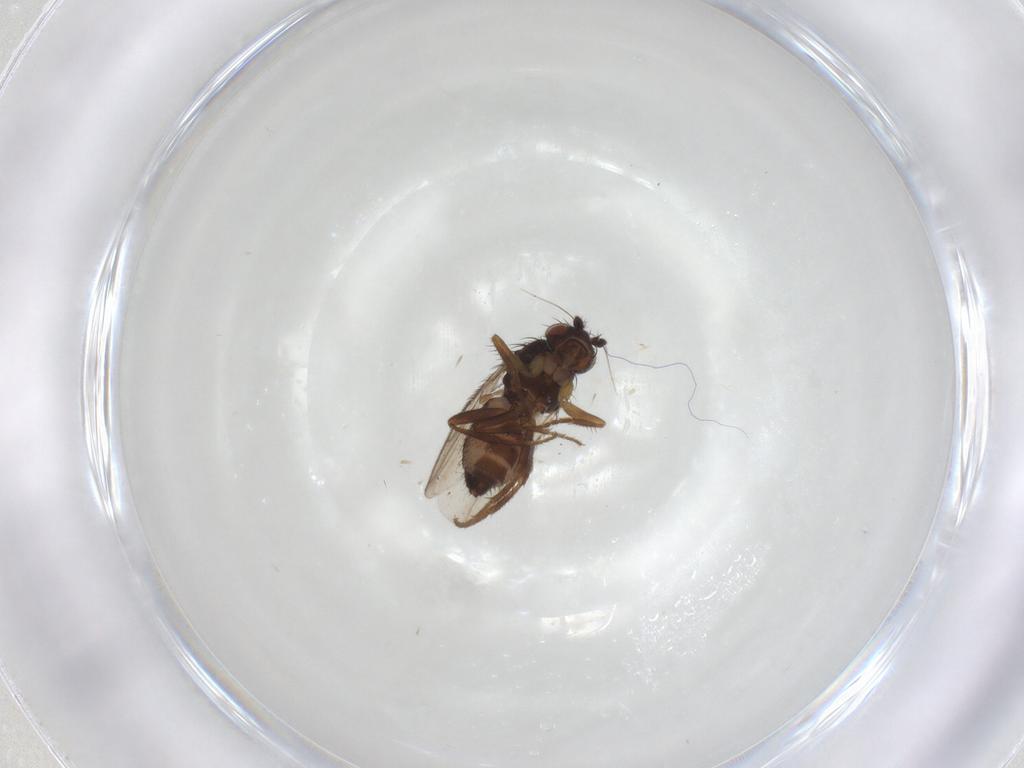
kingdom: Animalia
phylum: Arthropoda
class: Insecta
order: Diptera
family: Sphaeroceridae
